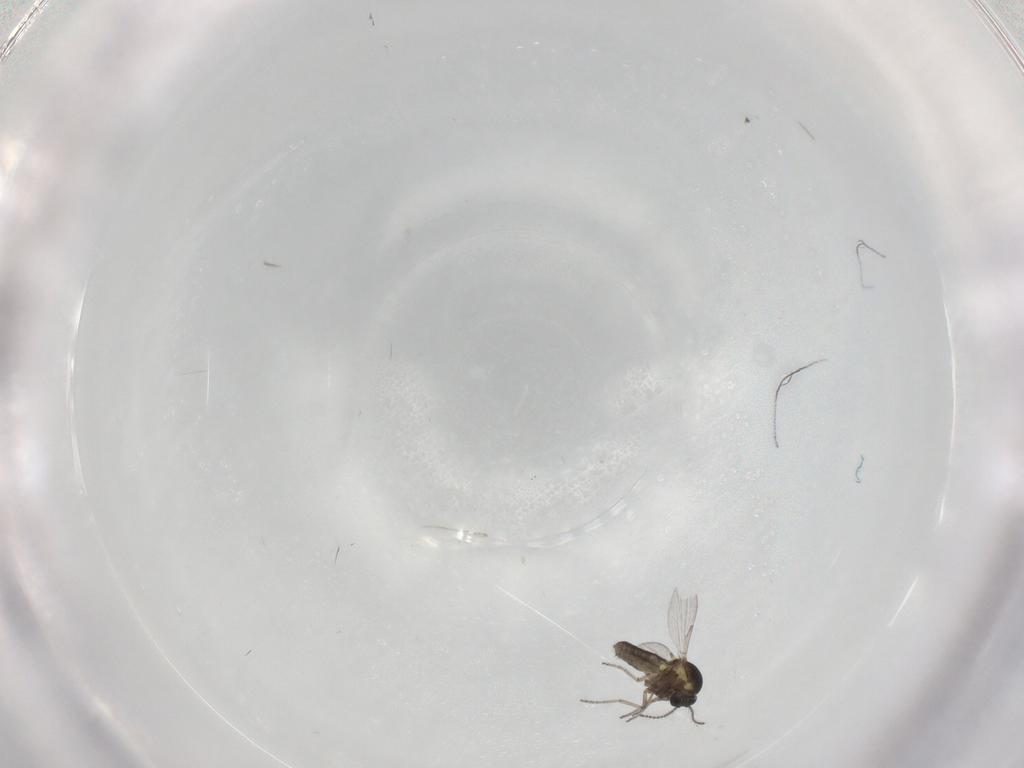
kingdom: Animalia
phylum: Arthropoda
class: Insecta
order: Diptera
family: Ceratopogonidae
